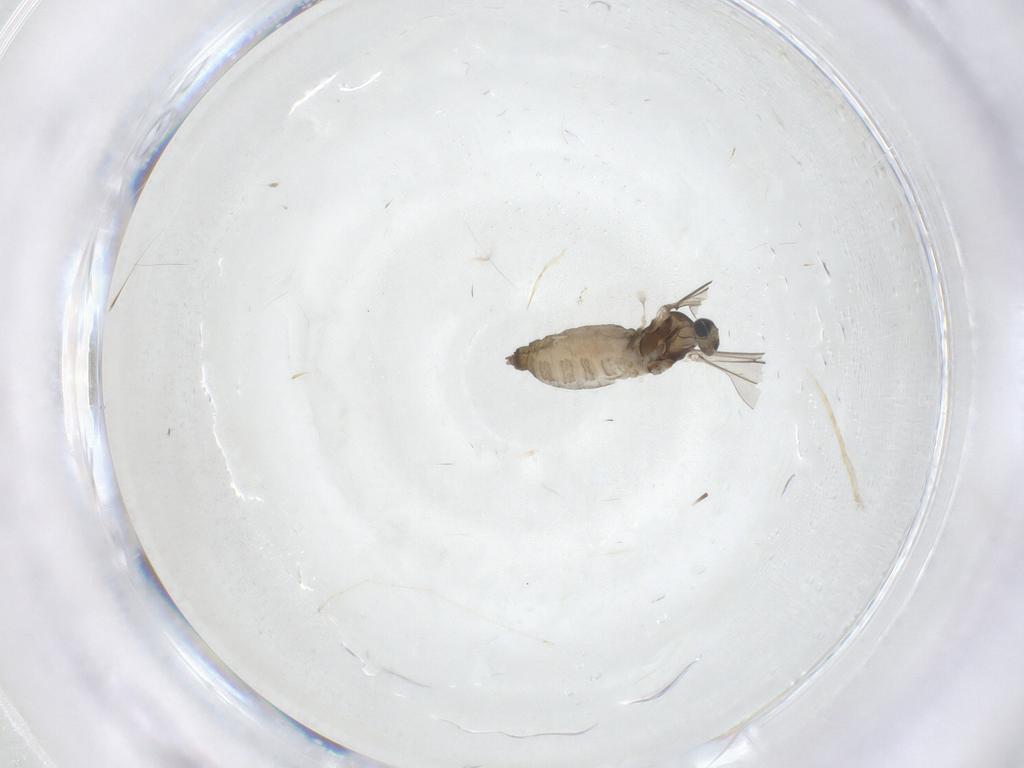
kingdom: Animalia
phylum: Arthropoda
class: Insecta
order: Diptera
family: Cecidomyiidae
